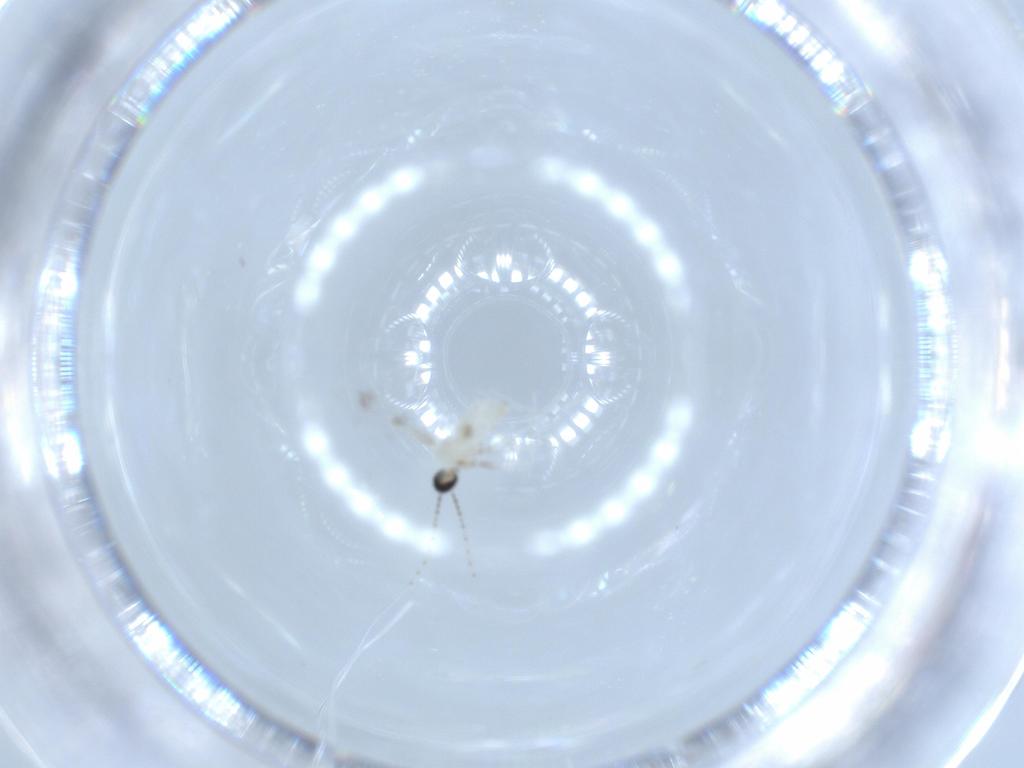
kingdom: Animalia
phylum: Arthropoda
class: Insecta
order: Diptera
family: Cecidomyiidae
